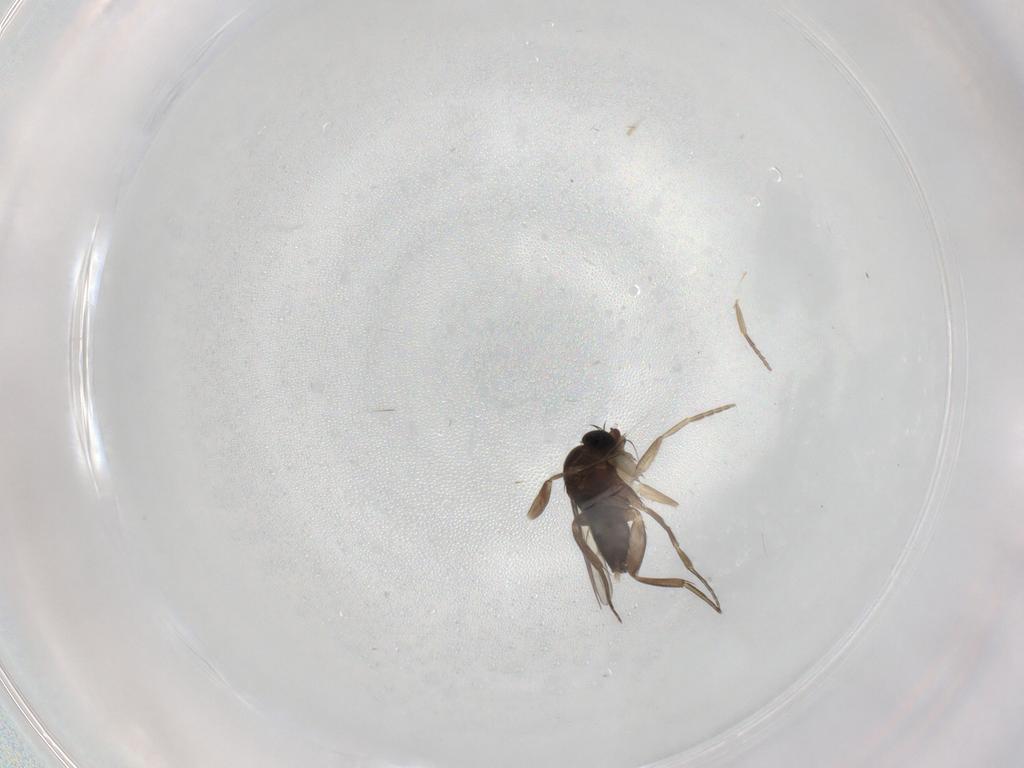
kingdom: Animalia
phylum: Arthropoda
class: Insecta
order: Diptera
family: Phoridae
